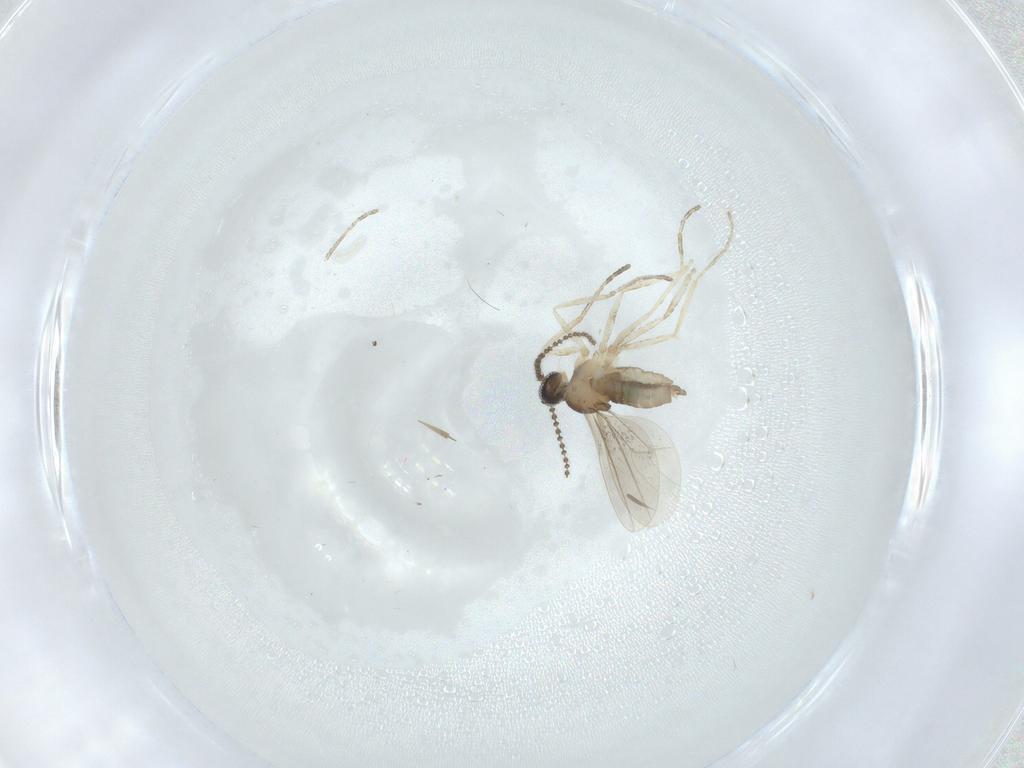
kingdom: Animalia
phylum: Arthropoda
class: Insecta
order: Diptera
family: Cecidomyiidae
